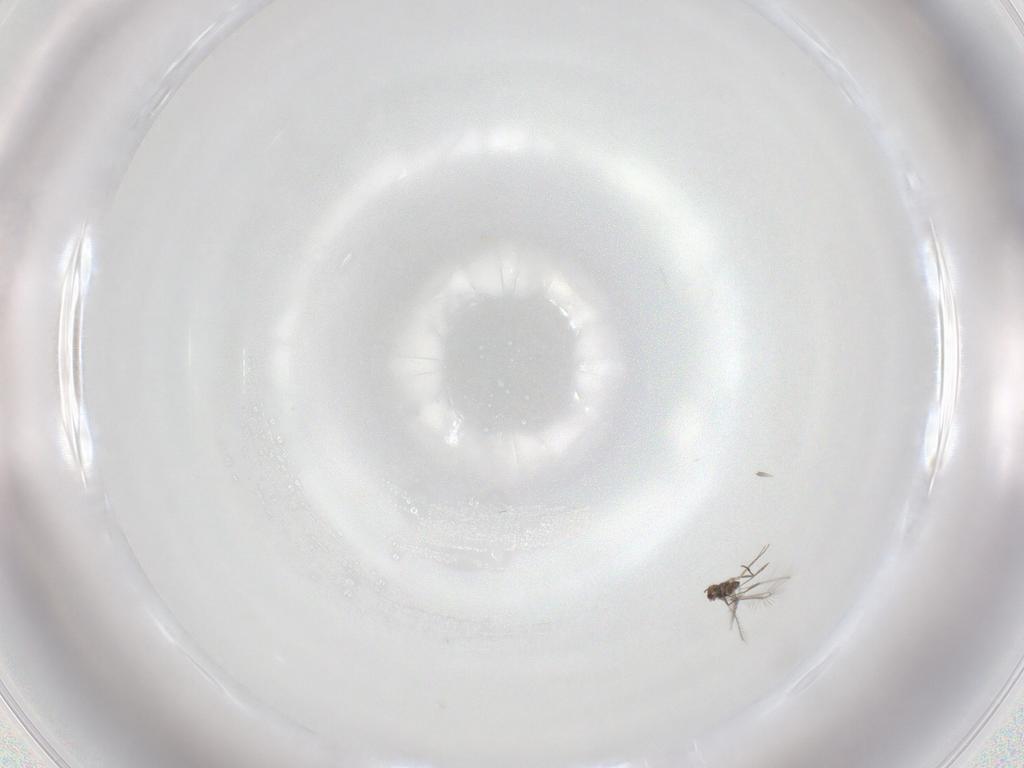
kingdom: Animalia
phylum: Arthropoda
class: Insecta
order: Hymenoptera
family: Mymaridae
